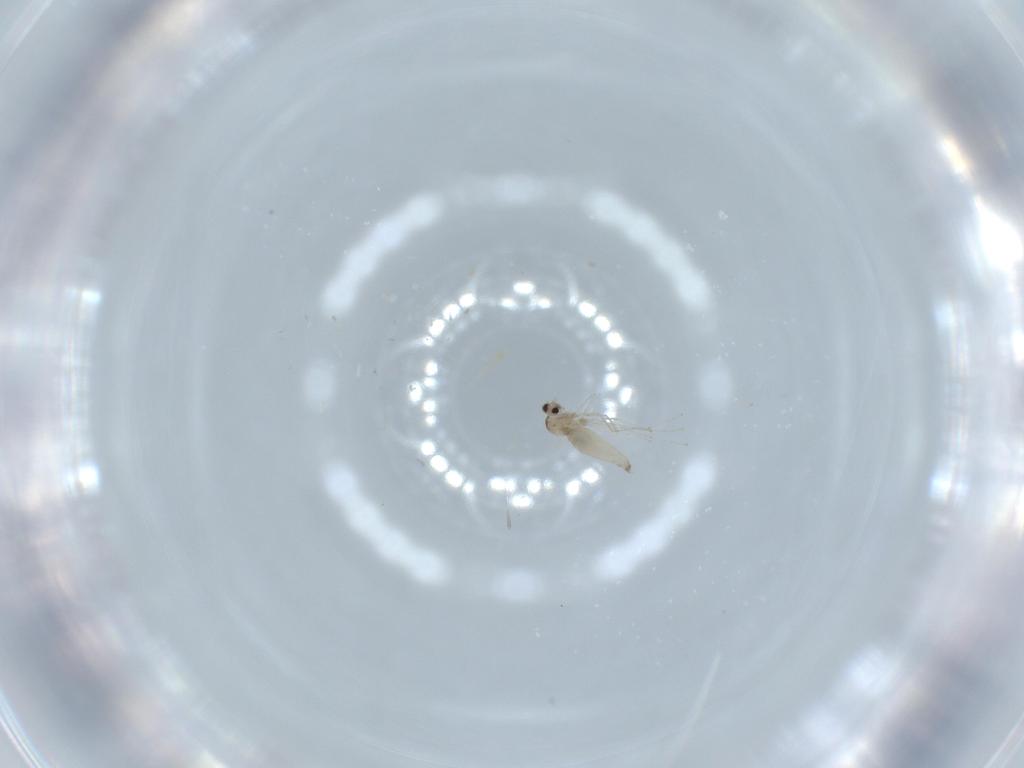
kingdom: Animalia
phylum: Arthropoda
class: Insecta
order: Diptera
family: Cecidomyiidae
